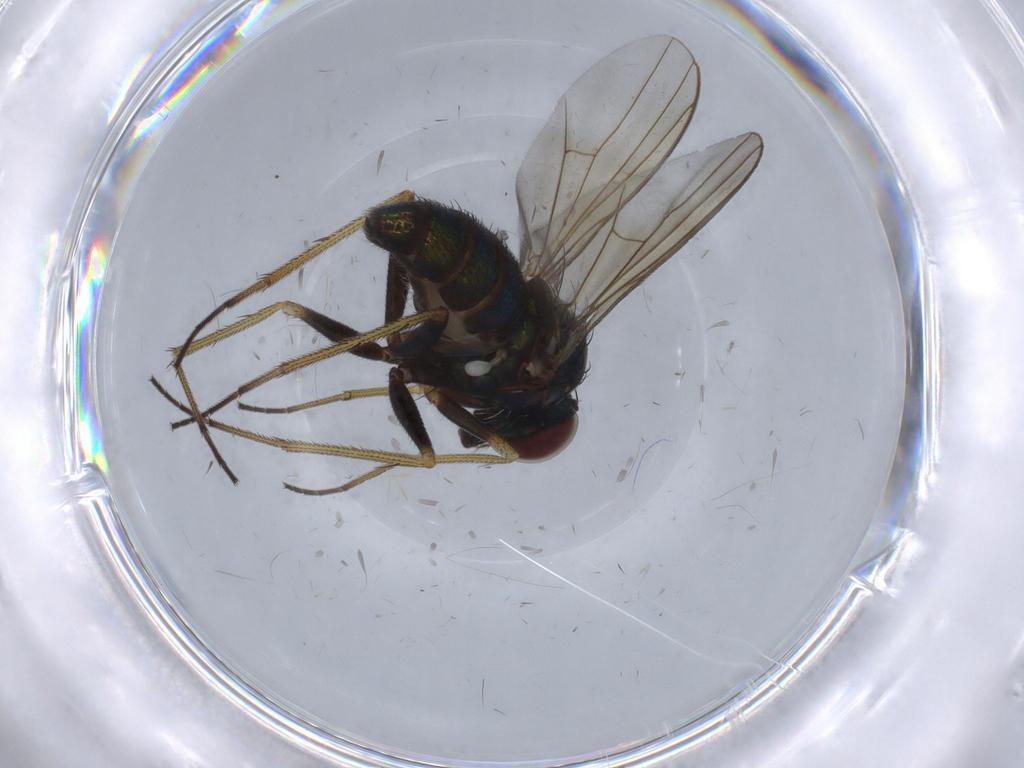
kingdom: Animalia
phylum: Arthropoda
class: Insecta
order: Diptera
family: Dolichopodidae
